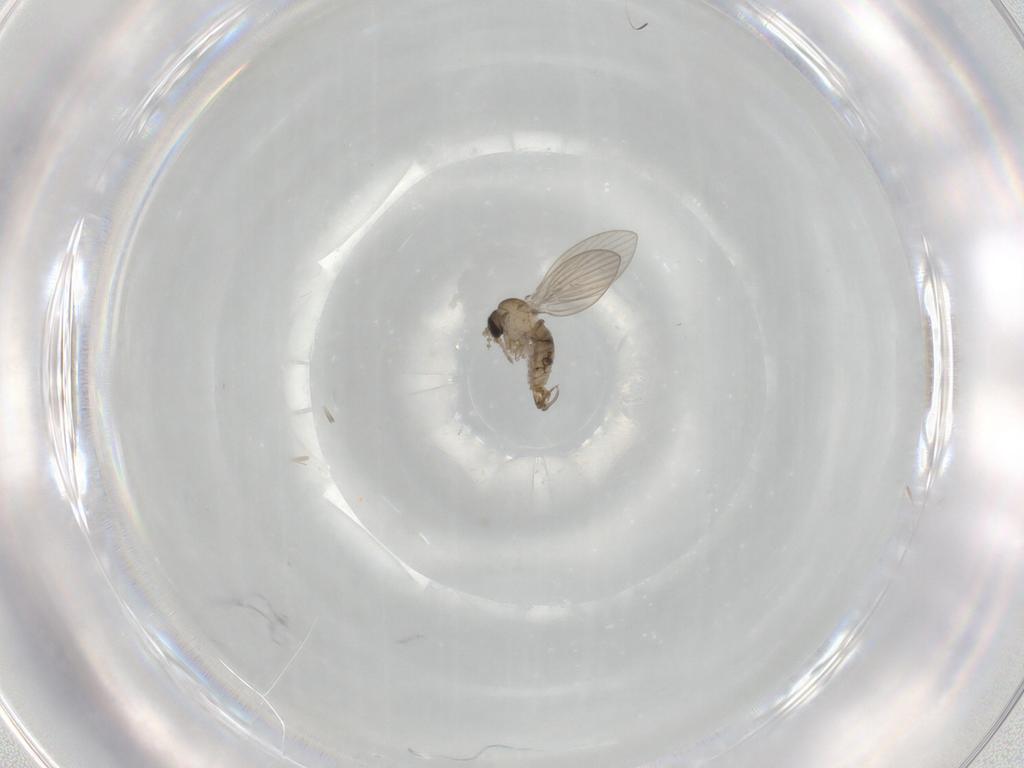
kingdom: Animalia
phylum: Arthropoda
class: Insecta
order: Diptera
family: Psychodidae
